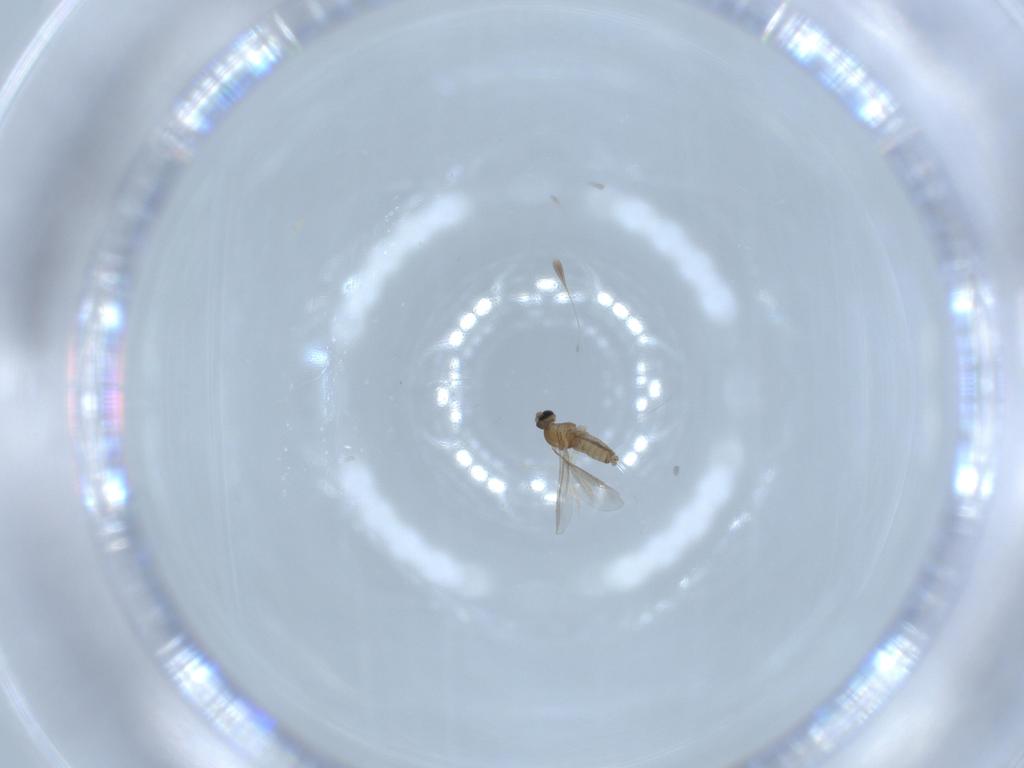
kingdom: Animalia
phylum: Arthropoda
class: Insecta
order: Diptera
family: Cecidomyiidae
